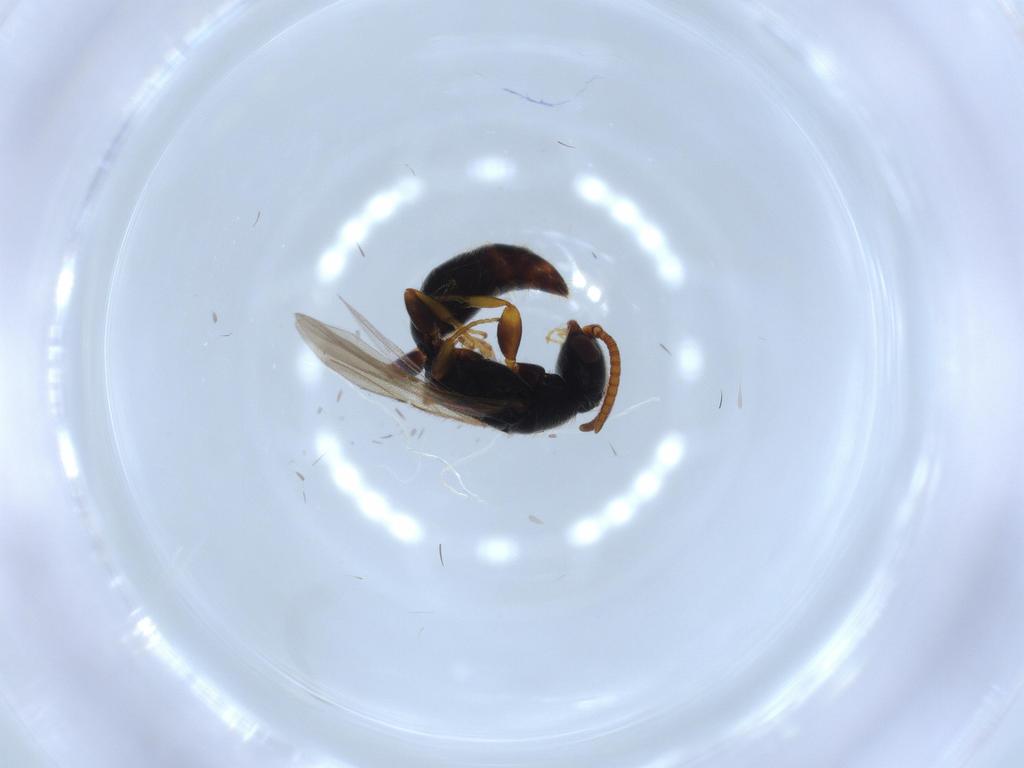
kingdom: Animalia
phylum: Arthropoda
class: Insecta
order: Hymenoptera
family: Bethylidae
